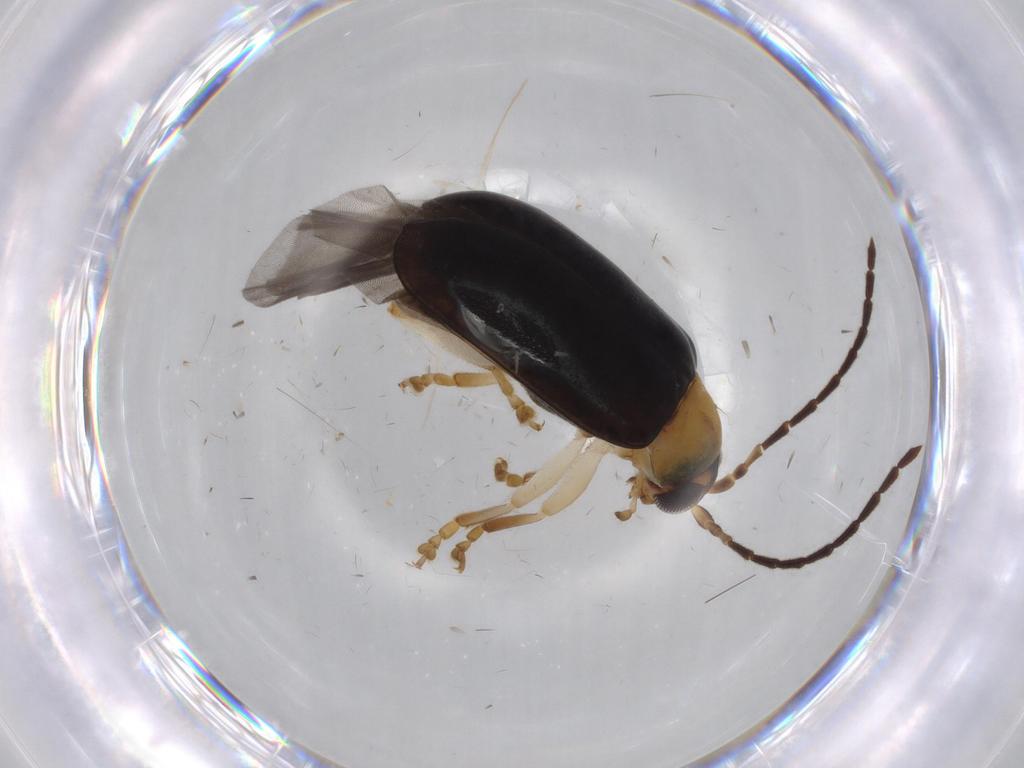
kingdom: Animalia
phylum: Arthropoda
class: Insecta
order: Coleoptera
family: Chrysomelidae
